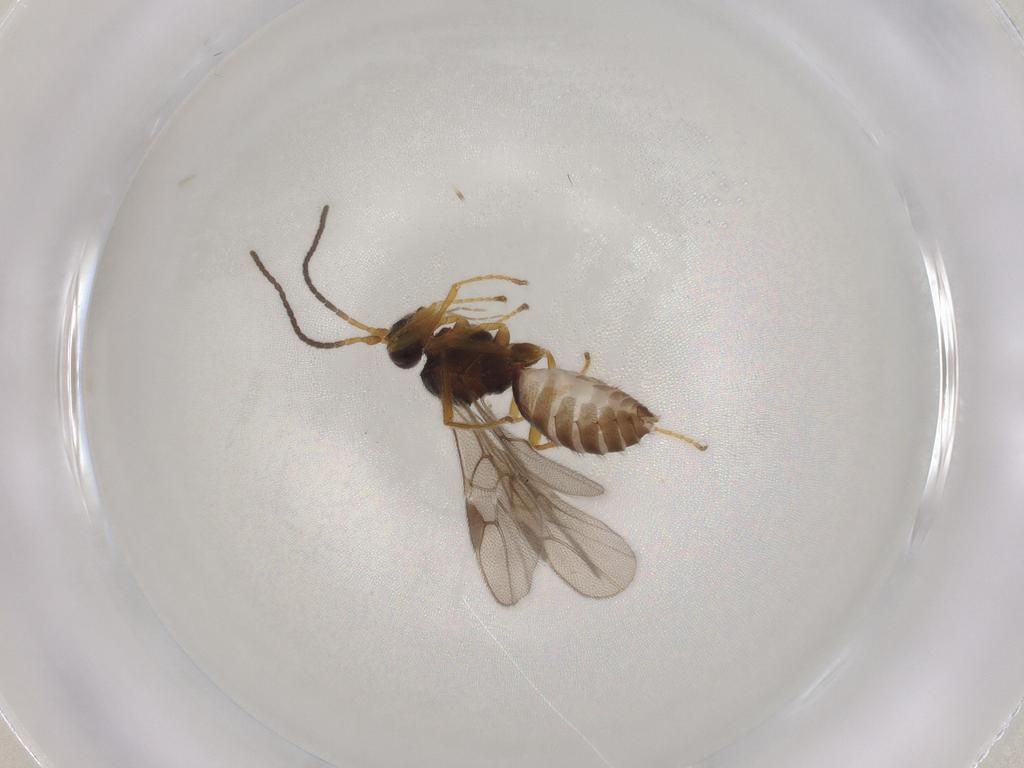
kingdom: Animalia
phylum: Arthropoda
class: Insecta
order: Hymenoptera
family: Braconidae
